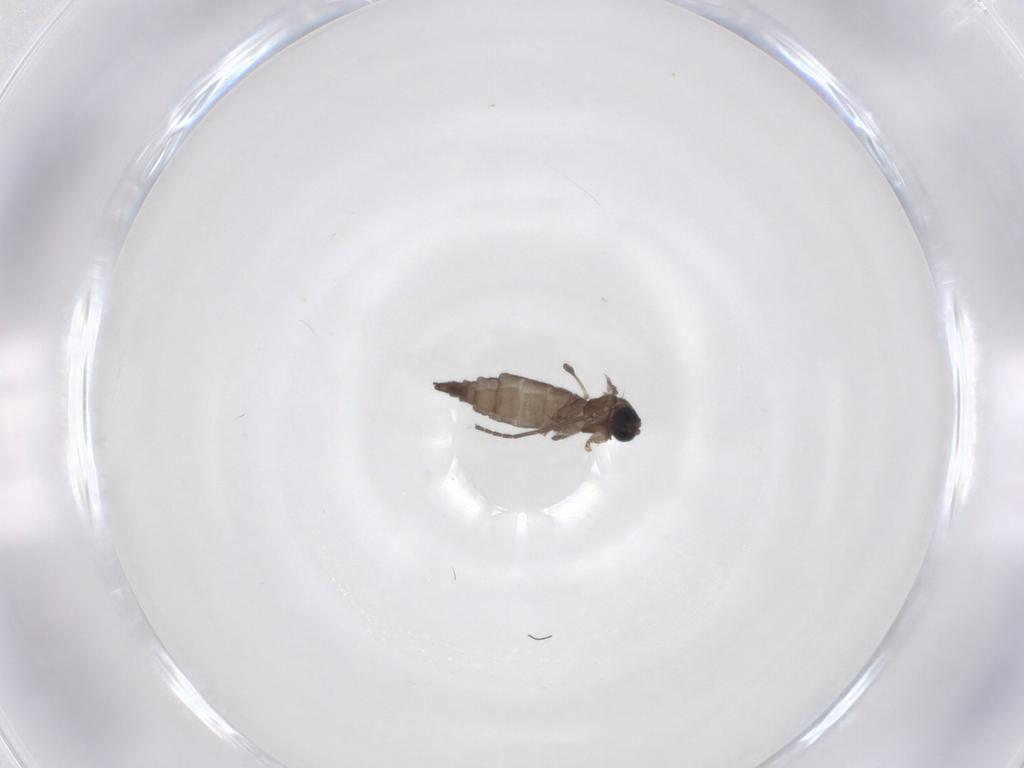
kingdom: Animalia
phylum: Arthropoda
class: Insecta
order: Diptera
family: Sciaridae
